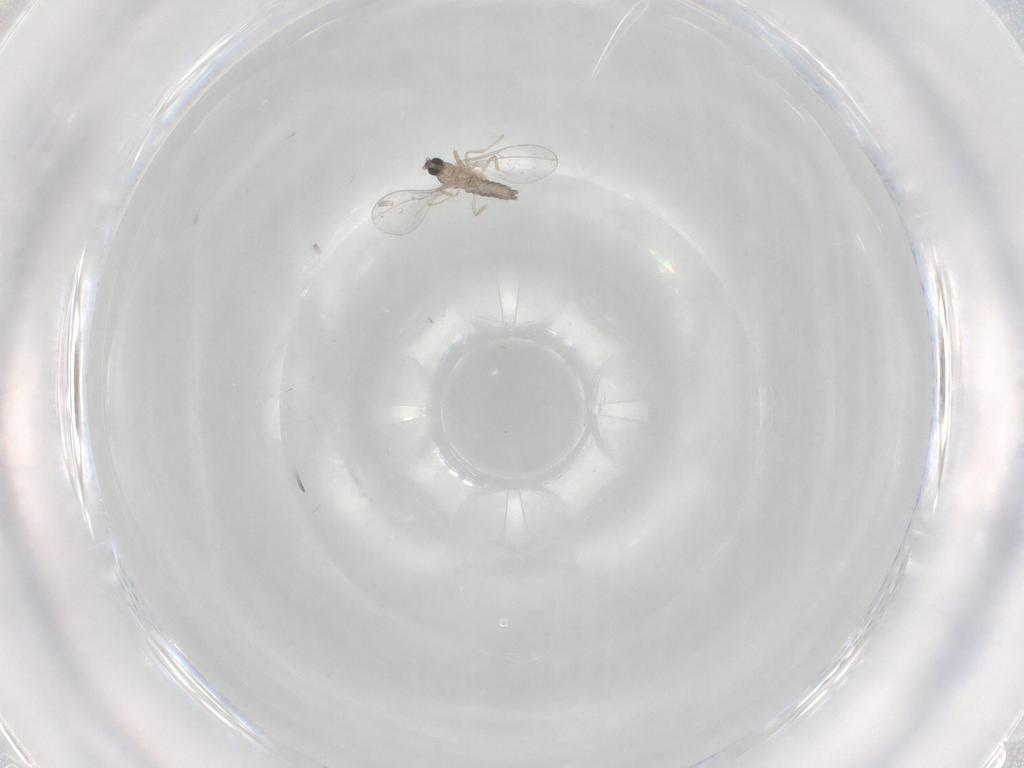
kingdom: Animalia
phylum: Arthropoda
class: Insecta
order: Diptera
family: Cecidomyiidae
